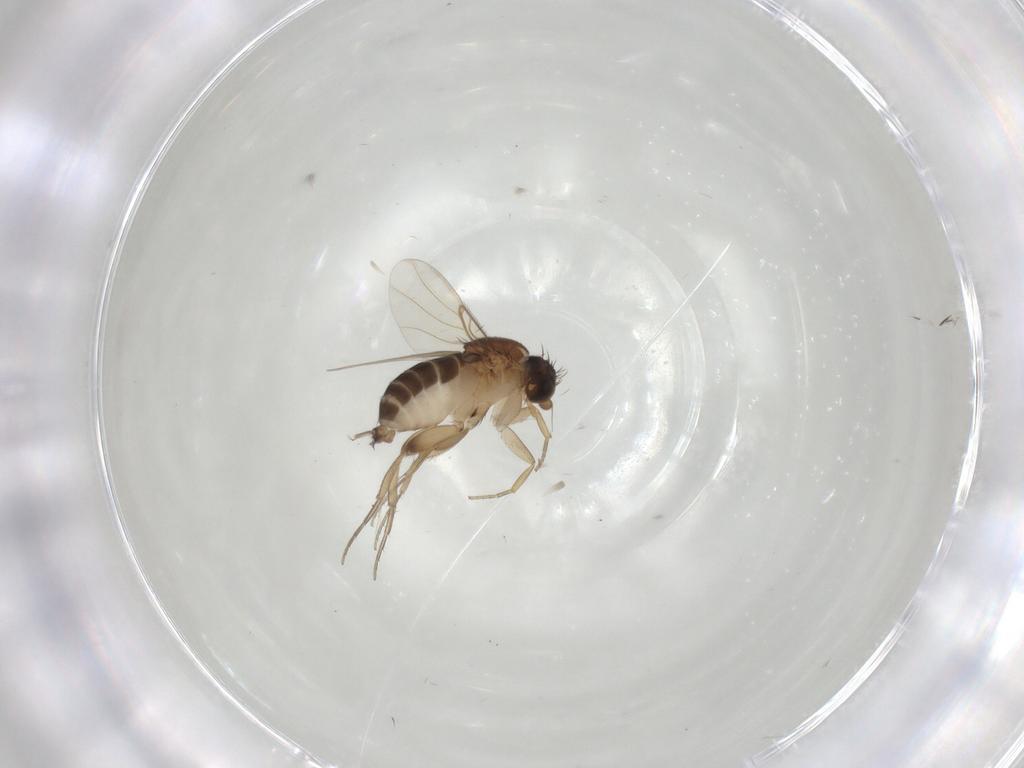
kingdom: Animalia
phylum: Arthropoda
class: Insecta
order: Diptera
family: Phoridae
